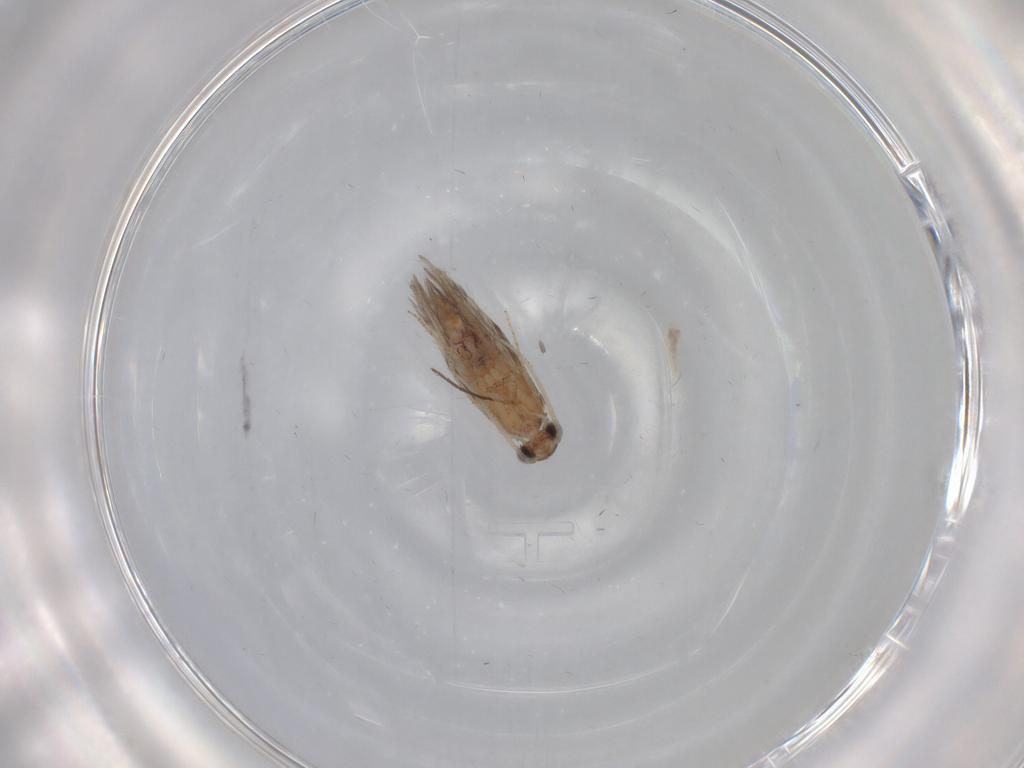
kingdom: Animalia
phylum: Arthropoda
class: Insecta
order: Trichoptera
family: Hydroptilidae
